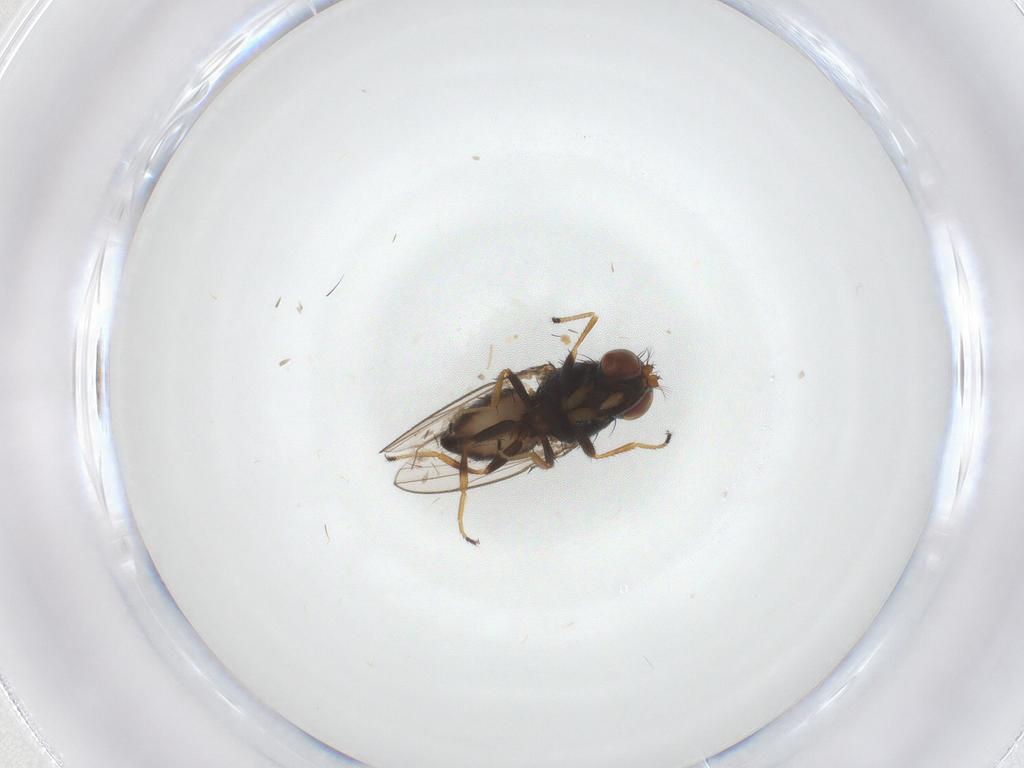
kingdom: Animalia
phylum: Arthropoda
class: Insecta
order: Diptera
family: Ephydridae
